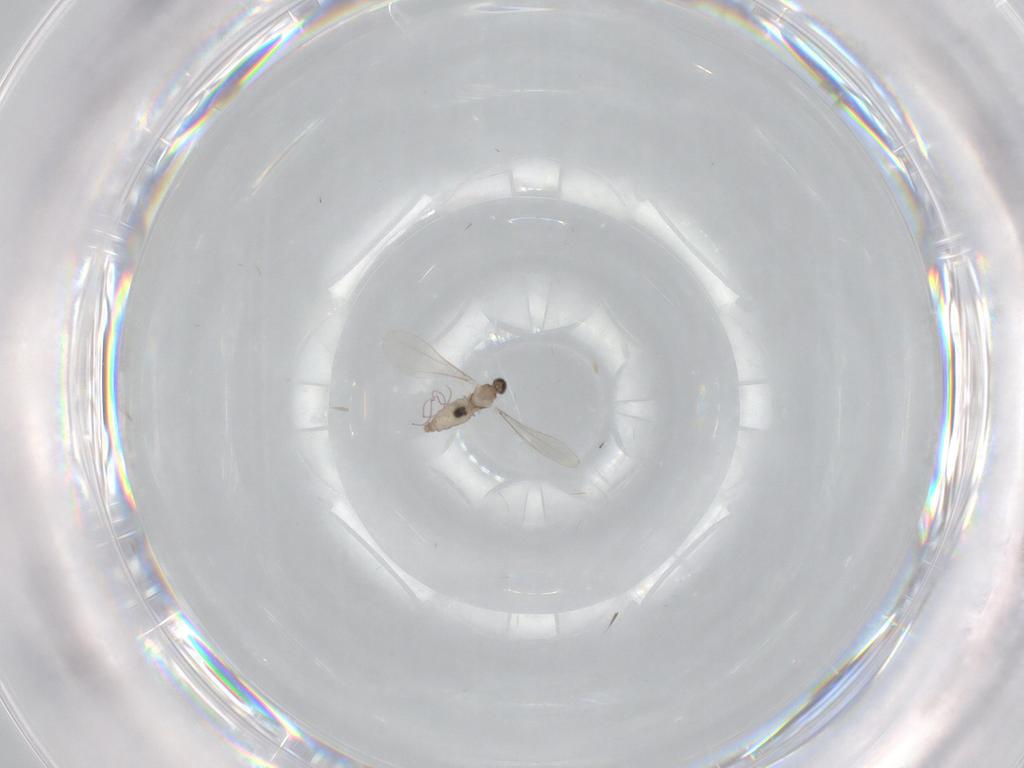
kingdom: Animalia
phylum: Arthropoda
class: Insecta
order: Diptera
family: Cecidomyiidae
